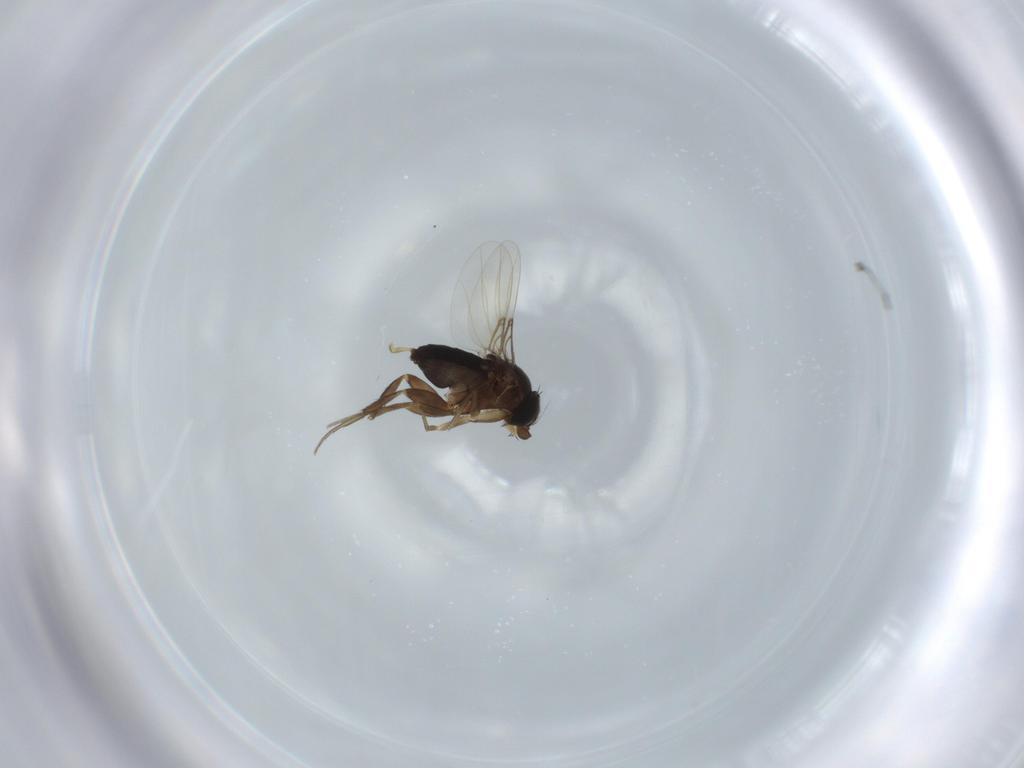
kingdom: Animalia
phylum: Arthropoda
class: Insecta
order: Diptera
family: Phoridae
